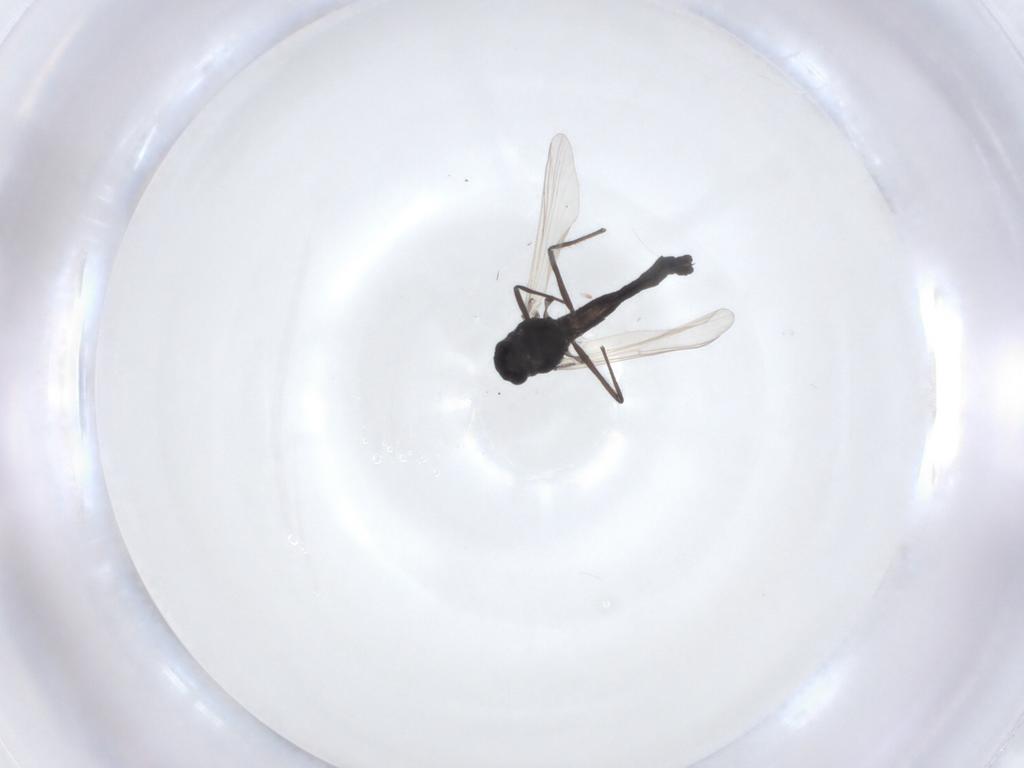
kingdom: Animalia
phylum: Arthropoda
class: Insecta
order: Diptera
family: Chironomidae
